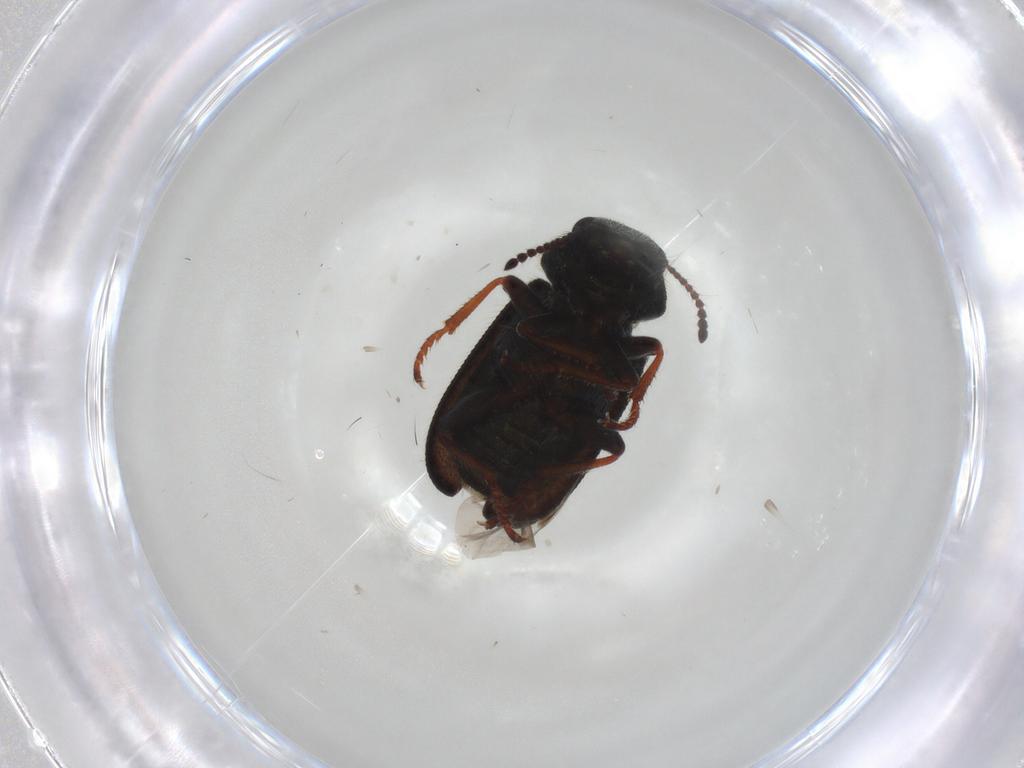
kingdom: Animalia
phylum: Arthropoda
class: Insecta
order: Coleoptera
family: Melyridae
